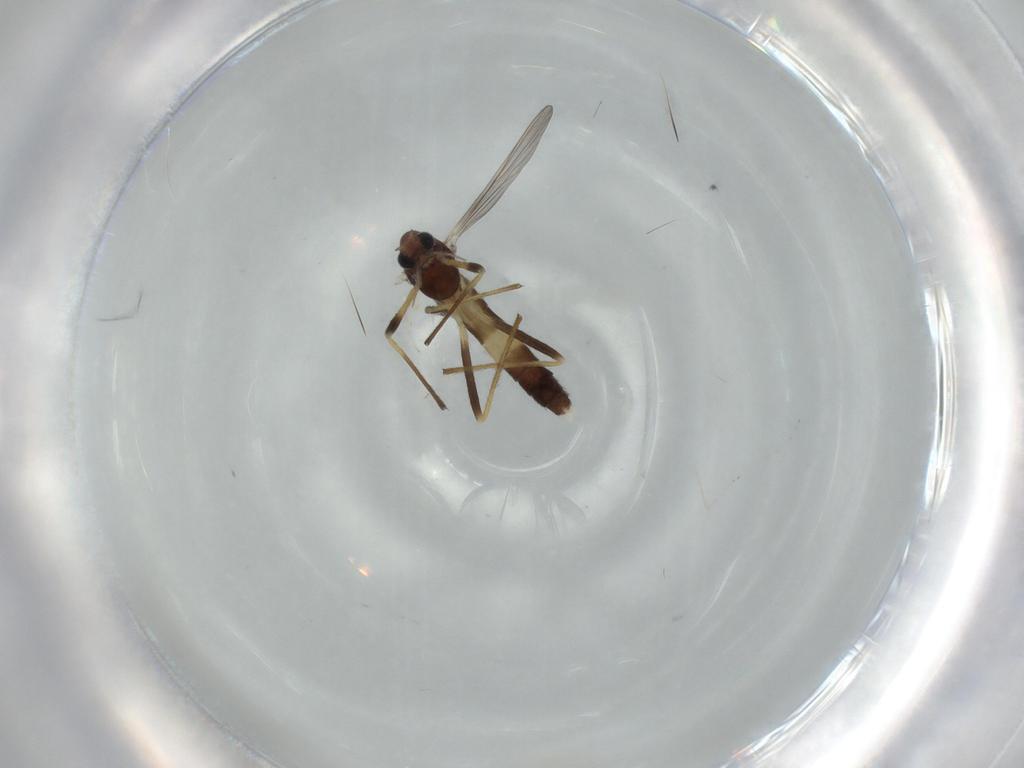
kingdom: Animalia
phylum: Arthropoda
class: Insecta
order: Diptera
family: Cecidomyiidae
